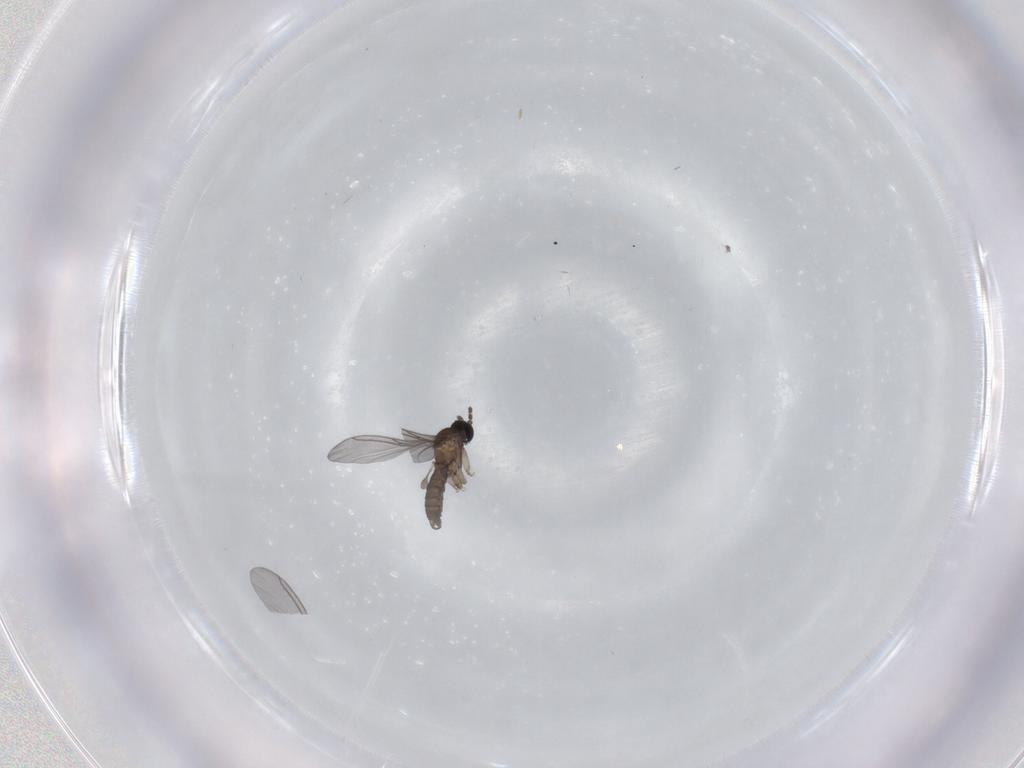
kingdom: Animalia
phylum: Arthropoda
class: Insecta
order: Diptera
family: Sciaridae
